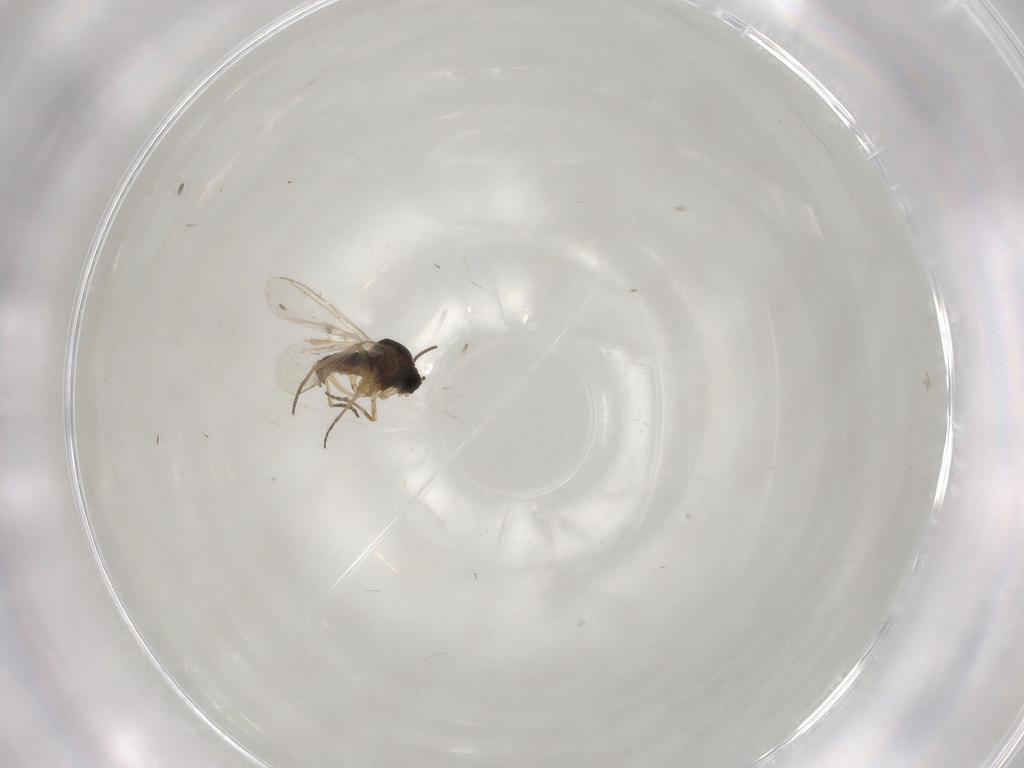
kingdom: Animalia
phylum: Arthropoda
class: Insecta
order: Diptera
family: Sciaridae
